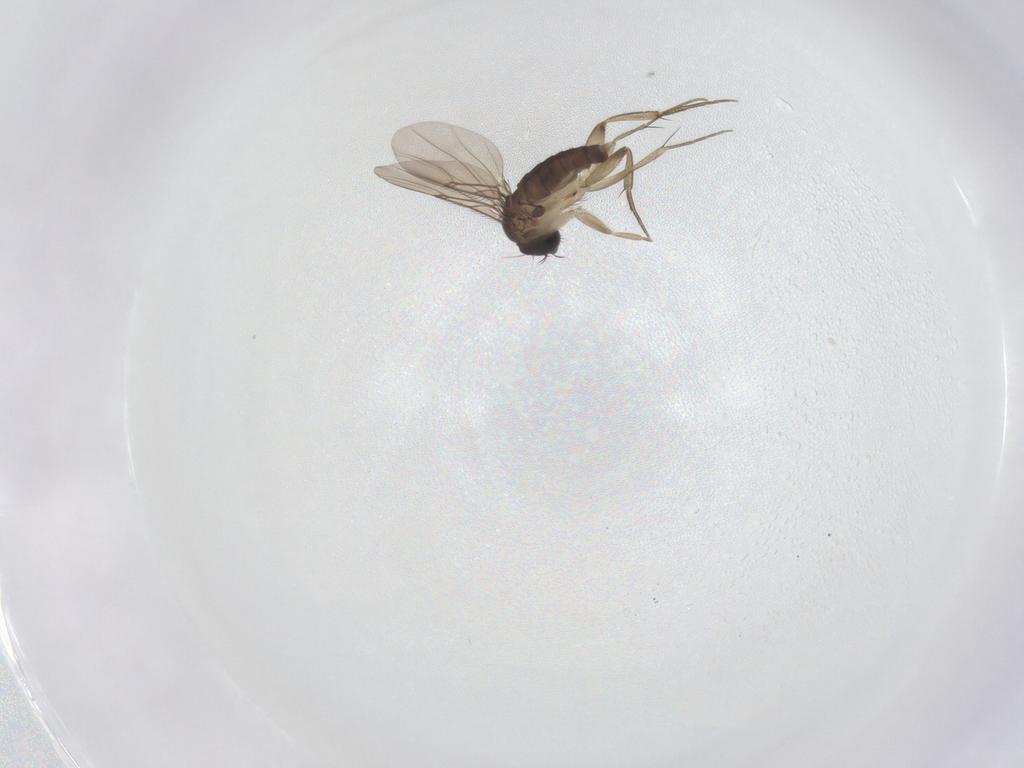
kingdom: Animalia
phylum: Arthropoda
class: Insecta
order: Diptera
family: Phoridae
